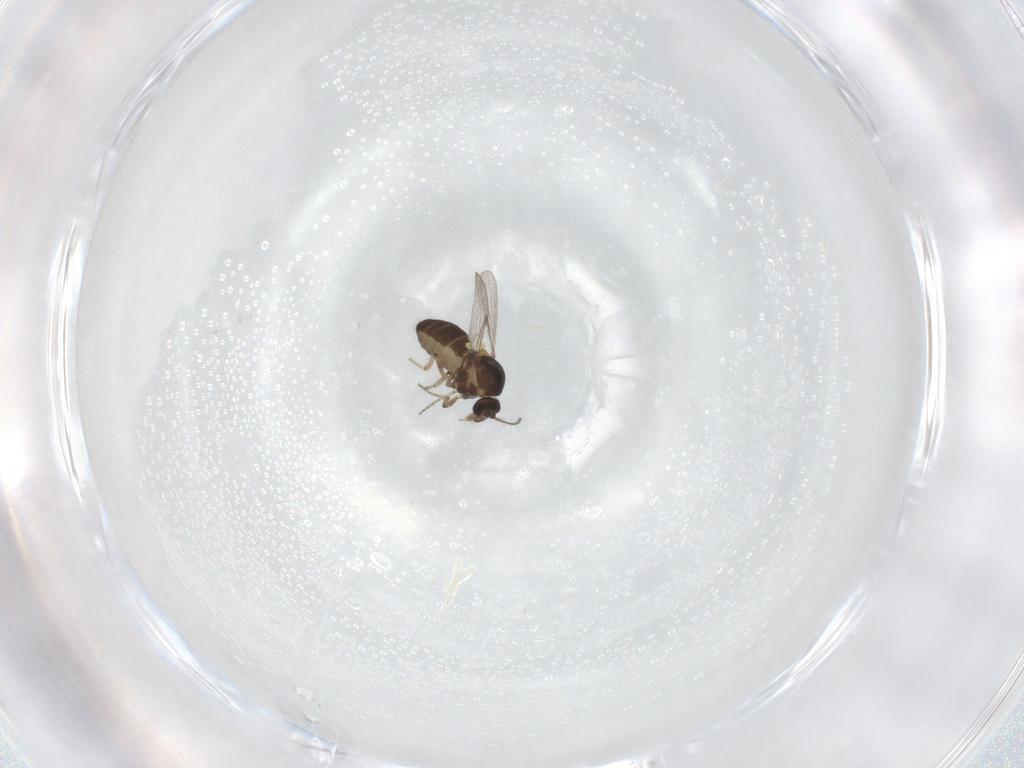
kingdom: Animalia
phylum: Arthropoda
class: Insecta
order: Diptera
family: Ceratopogonidae
